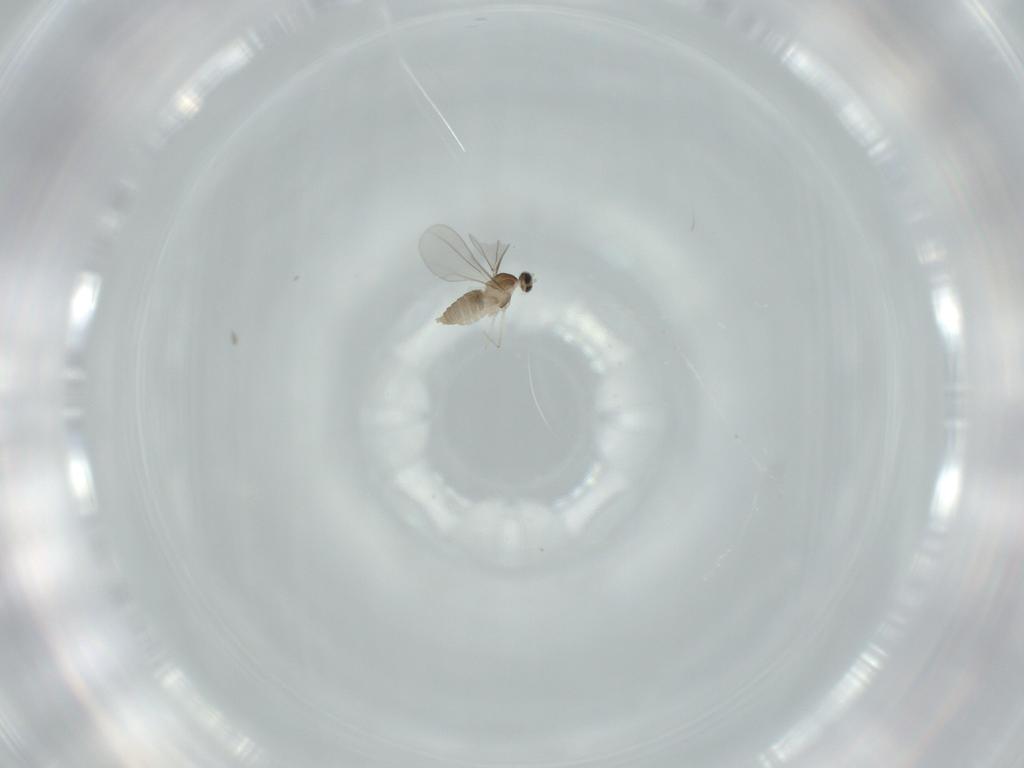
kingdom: Animalia
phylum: Arthropoda
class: Insecta
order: Diptera
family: Cecidomyiidae
